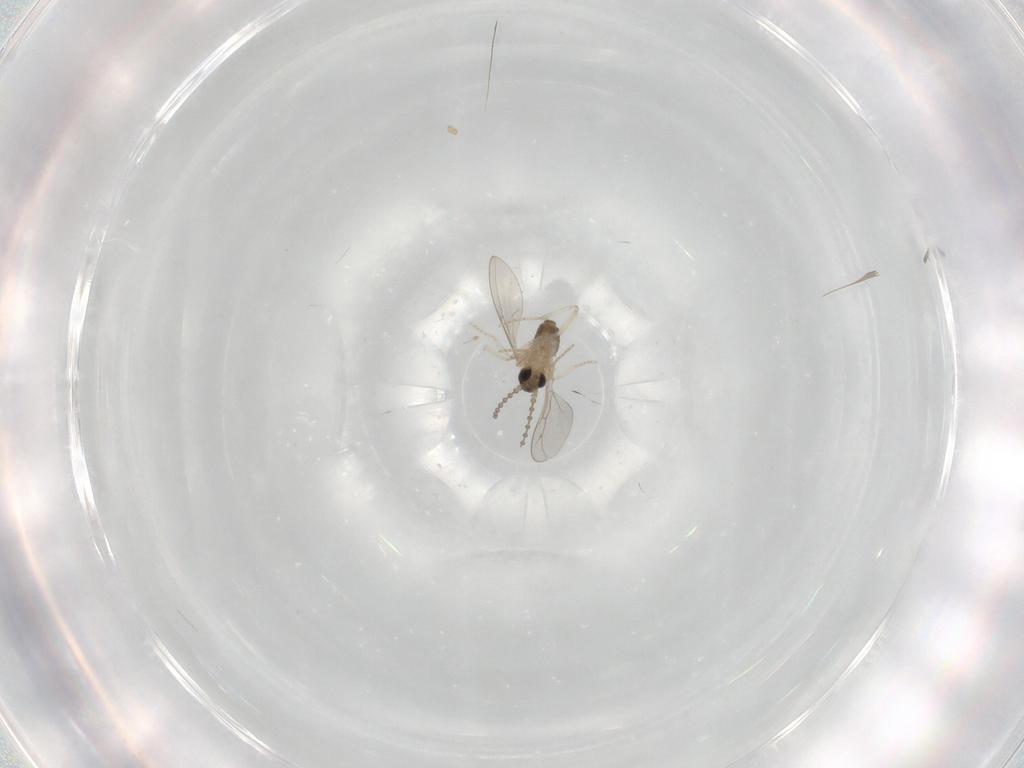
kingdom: Animalia
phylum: Arthropoda
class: Insecta
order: Diptera
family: Cecidomyiidae
